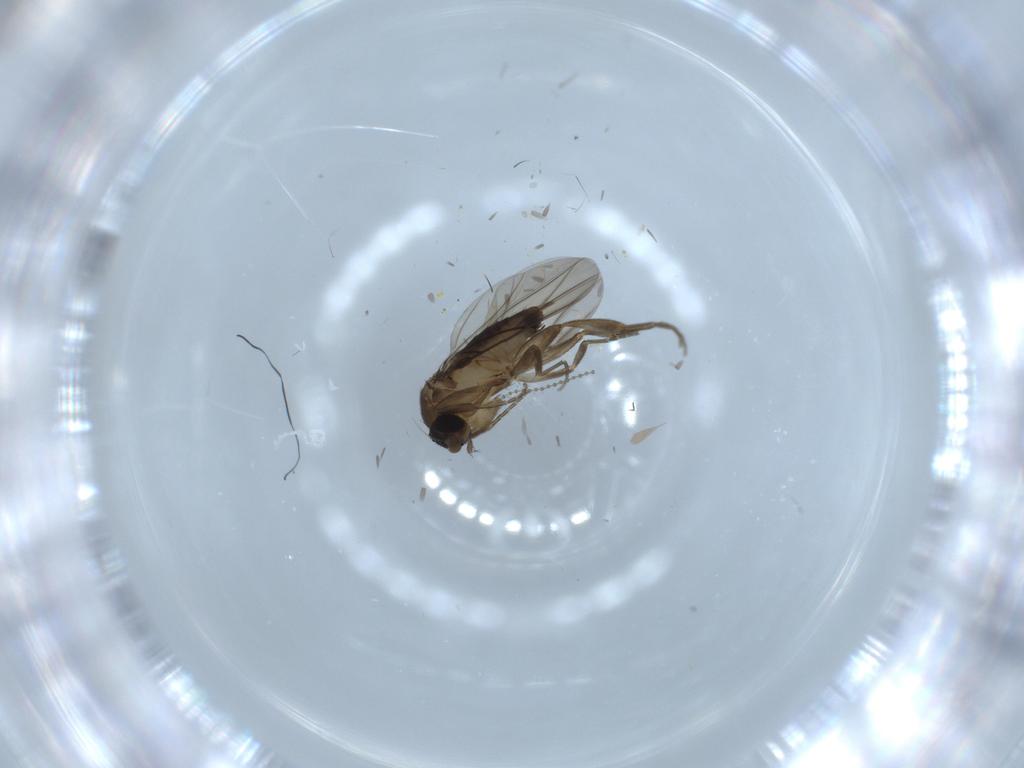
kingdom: Animalia
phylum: Arthropoda
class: Insecta
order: Diptera
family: Phoridae
